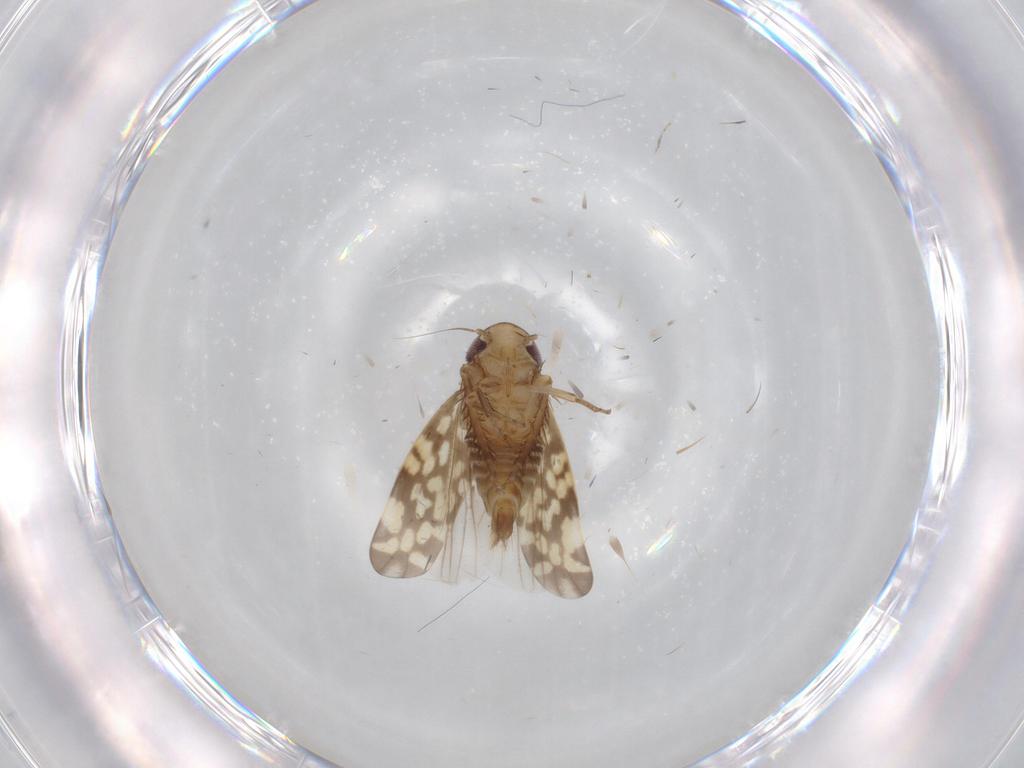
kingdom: Animalia
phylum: Arthropoda
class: Insecta
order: Hemiptera
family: Cicadellidae
